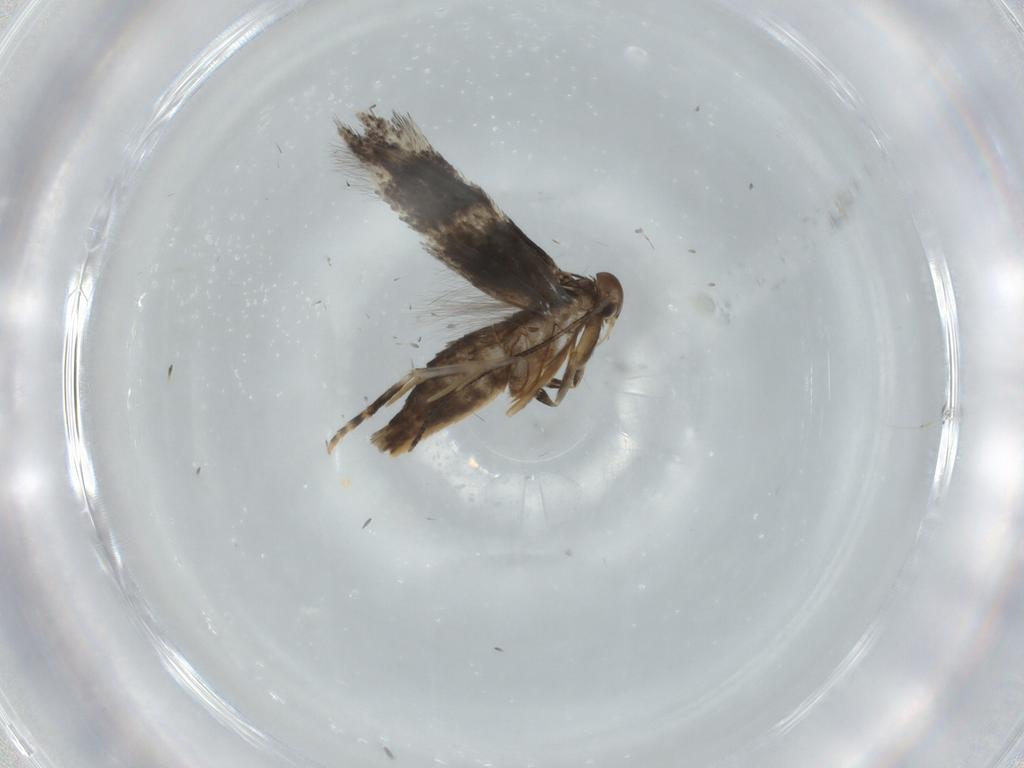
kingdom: Animalia
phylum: Arthropoda
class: Insecta
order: Lepidoptera
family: Elachistidae
